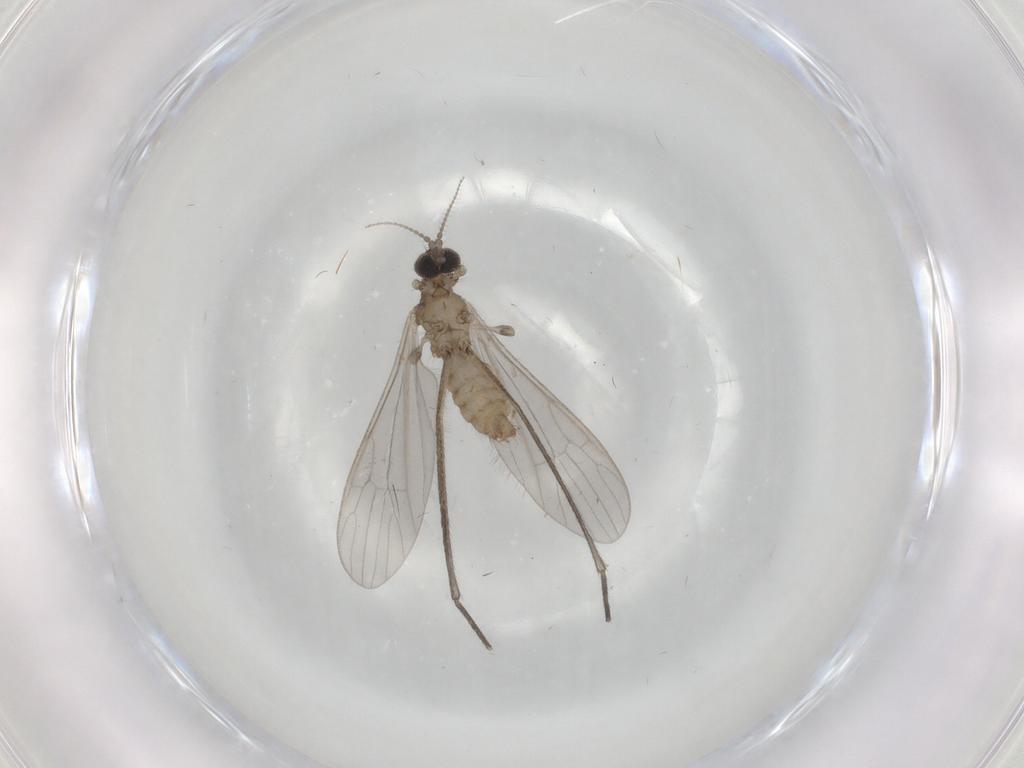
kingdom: Animalia
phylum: Arthropoda
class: Insecta
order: Diptera
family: Limoniidae
